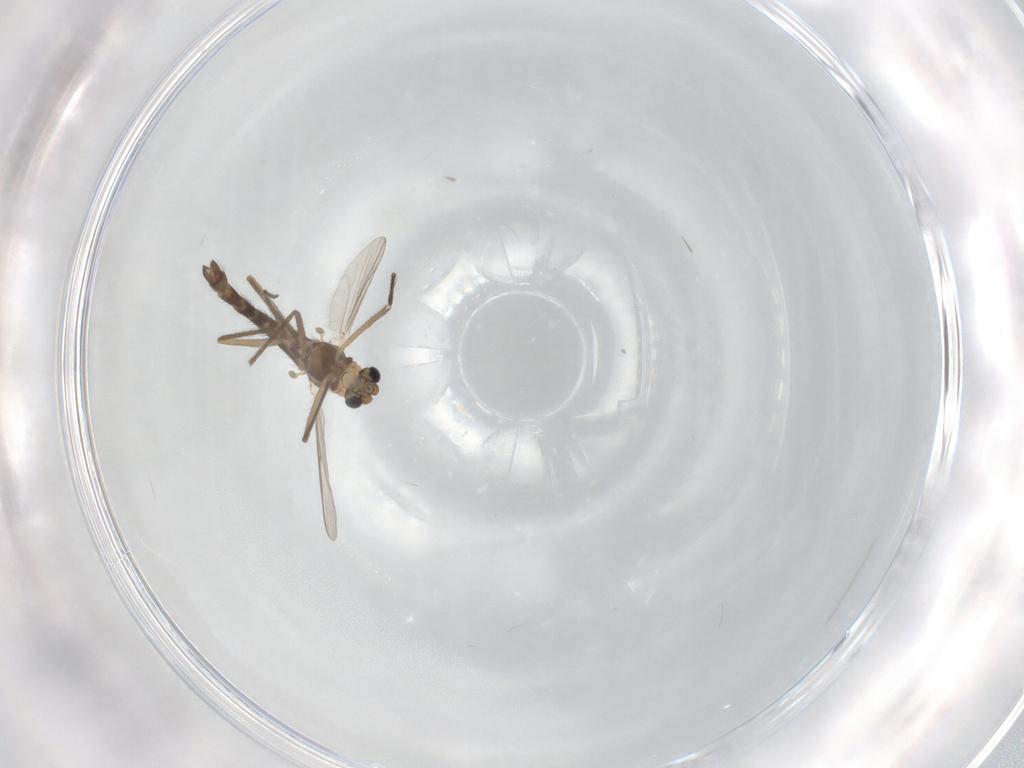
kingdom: Animalia
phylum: Arthropoda
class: Insecta
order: Diptera
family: Chironomidae
